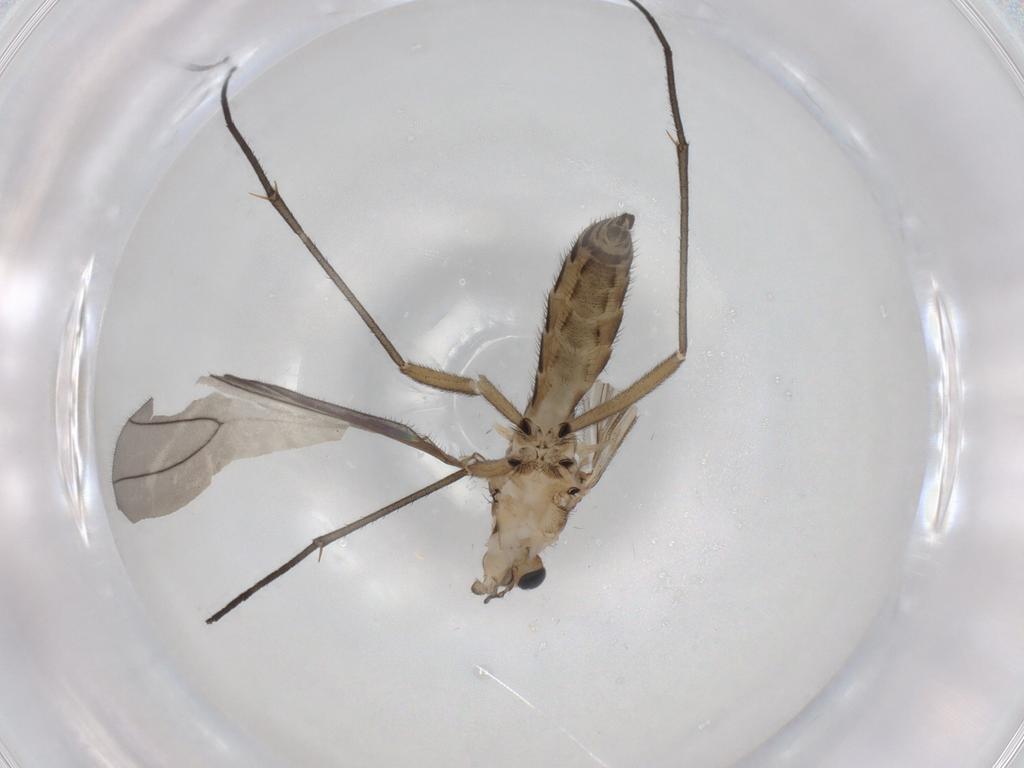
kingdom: Animalia
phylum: Arthropoda
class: Insecta
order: Diptera
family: Sciaridae
